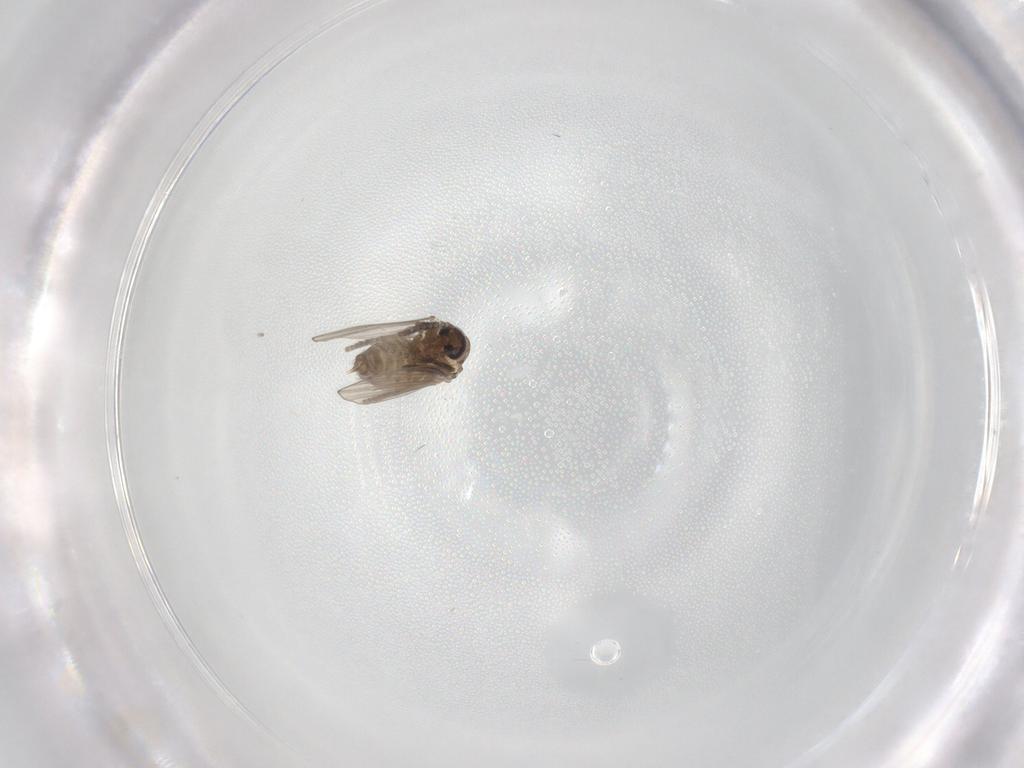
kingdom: Animalia
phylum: Arthropoda
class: Insecta
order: Diptera
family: Psychodidae
